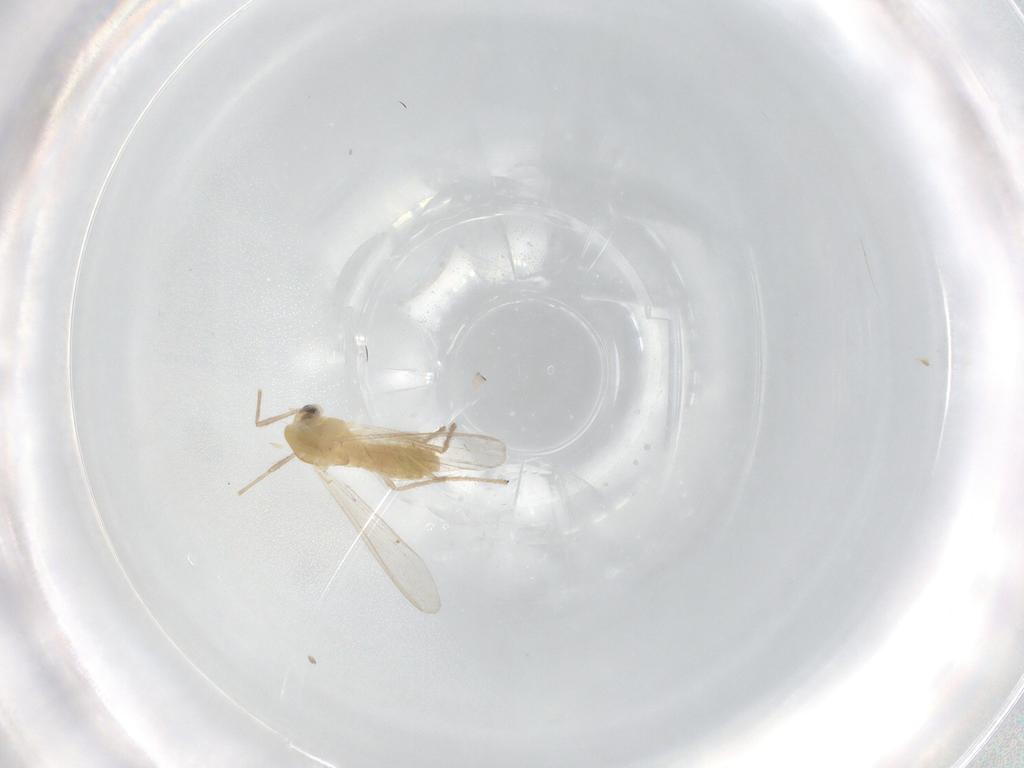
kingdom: Animalia
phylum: Arthropoda
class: Insecta
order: Diptera
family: Chironomidae
